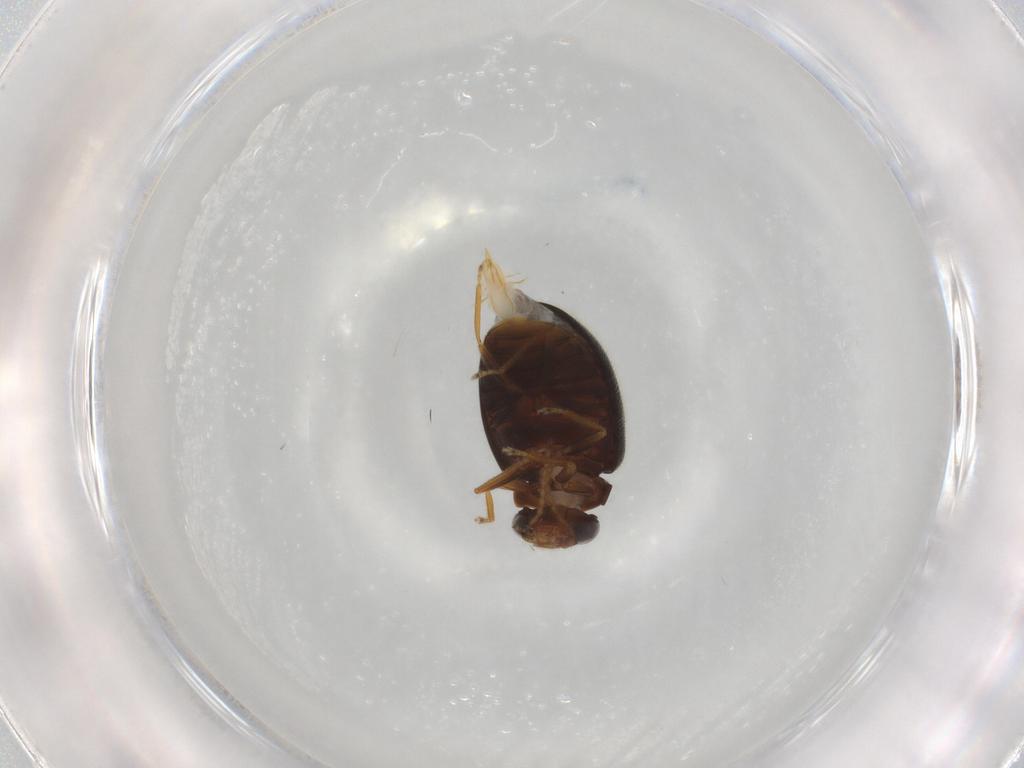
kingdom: Animalia
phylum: Arthropoda
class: Insecta
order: Coleoptera
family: Scirtidae
